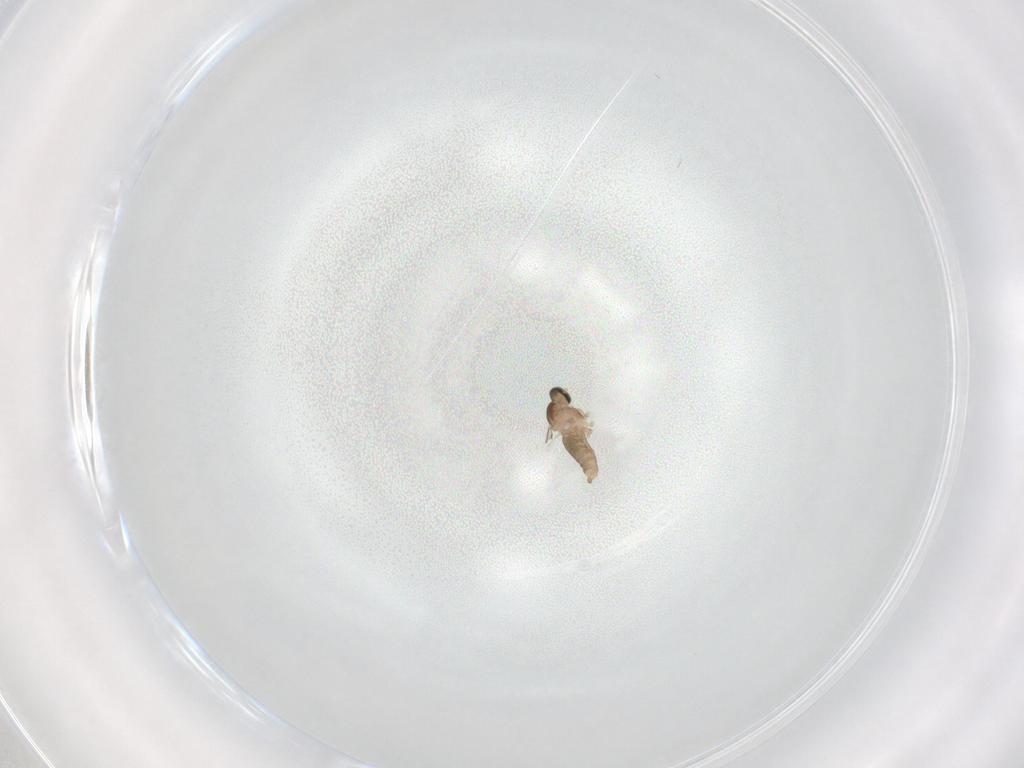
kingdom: Animalia
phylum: Arthropoda
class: Insecta
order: Diptera
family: Cecidomyiidae
